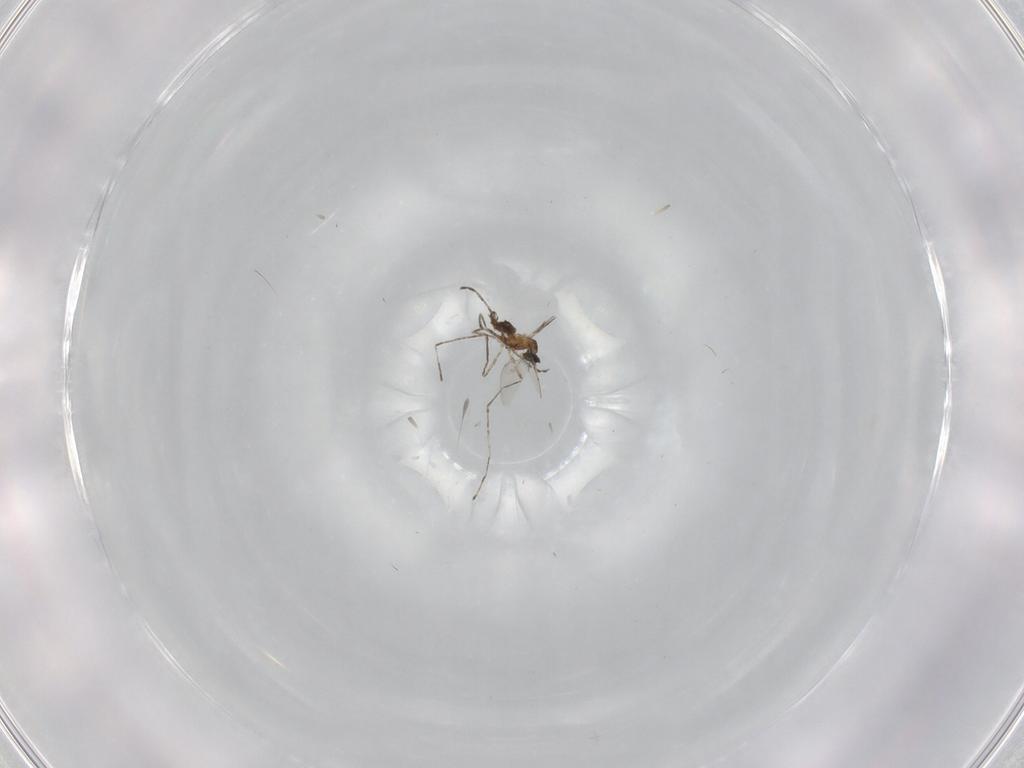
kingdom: Animalia
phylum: Arthropoda
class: Insecta
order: Diptera
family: Cecidomyiidae
